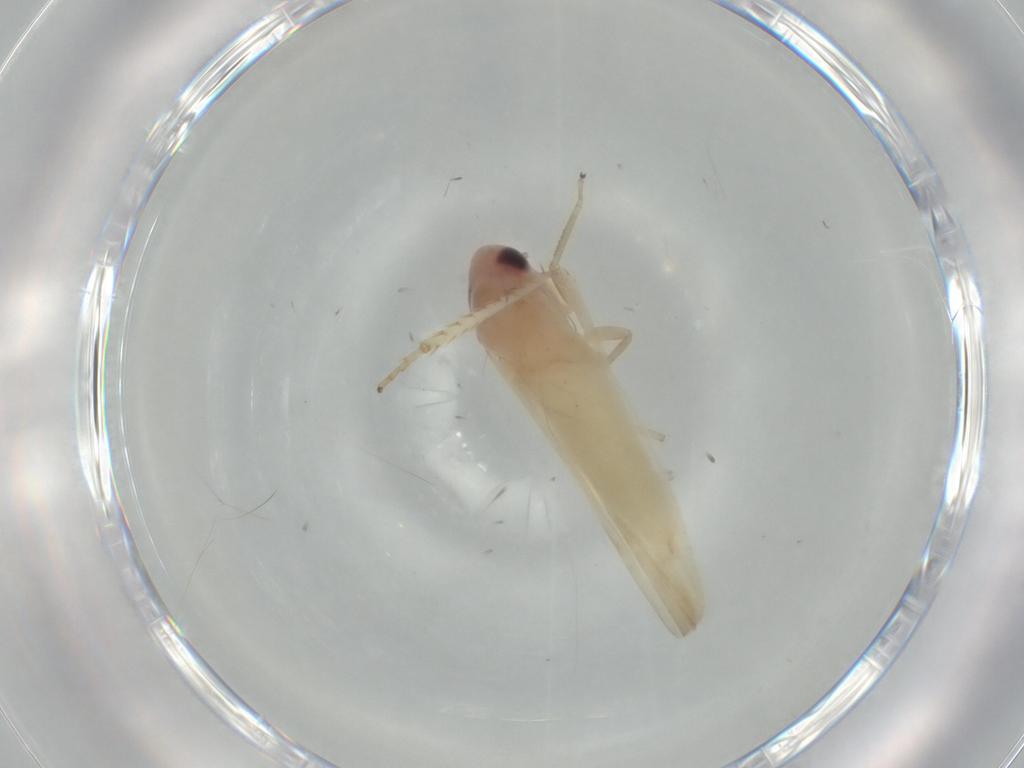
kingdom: Animalia
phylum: Arthropoda
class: Insecta
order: Hemiptera
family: Cicadellidae
